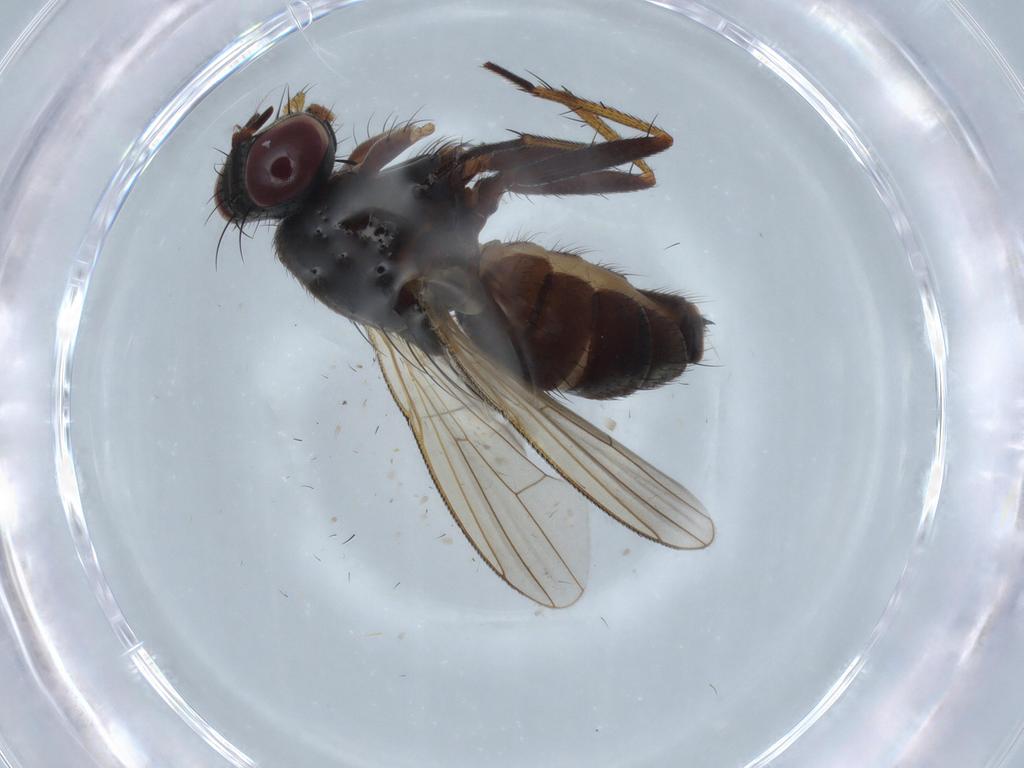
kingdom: Animalia
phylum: Arthropoda
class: Insecta
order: Diptera
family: Muscidae
